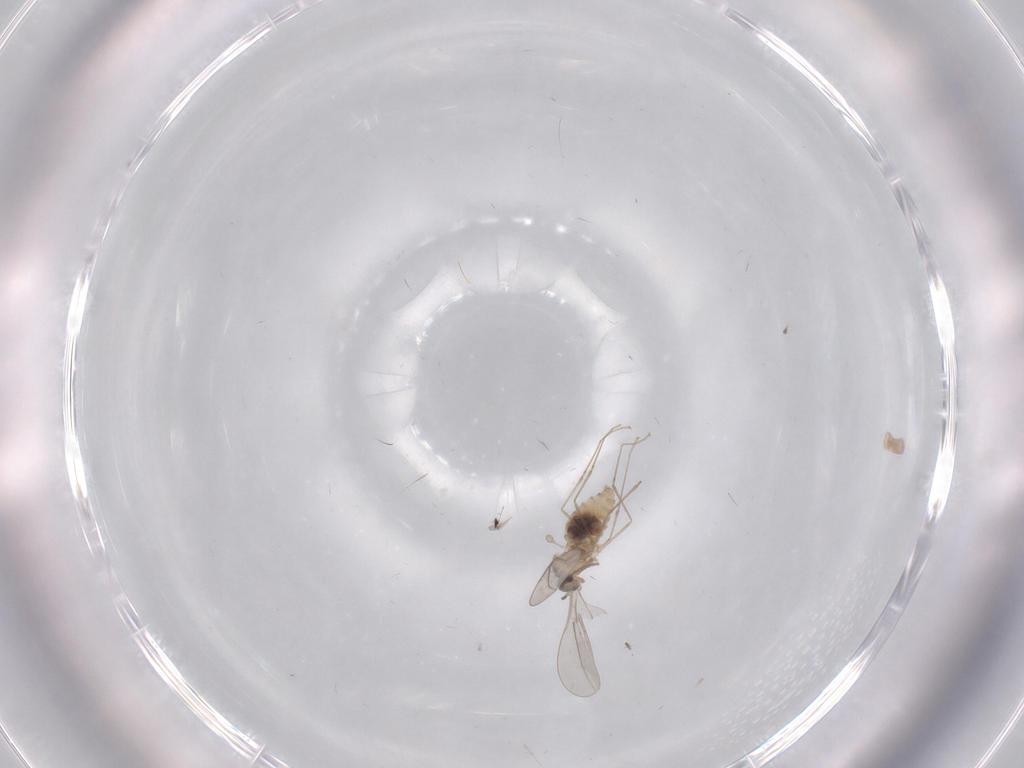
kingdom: Animalia
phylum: Arthropoda
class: Insecta
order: Diptera
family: Cecidomyiidae
